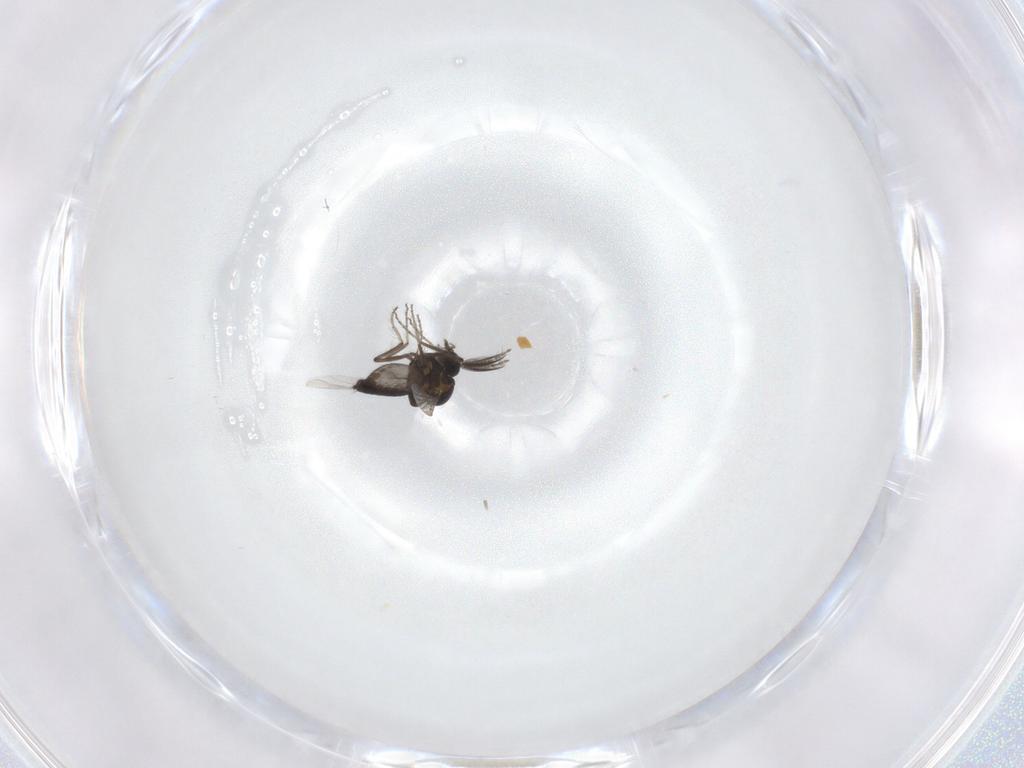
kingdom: Animalia
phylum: Arthropoda
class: Insecta
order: Diptera
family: Ceratopogonidae
